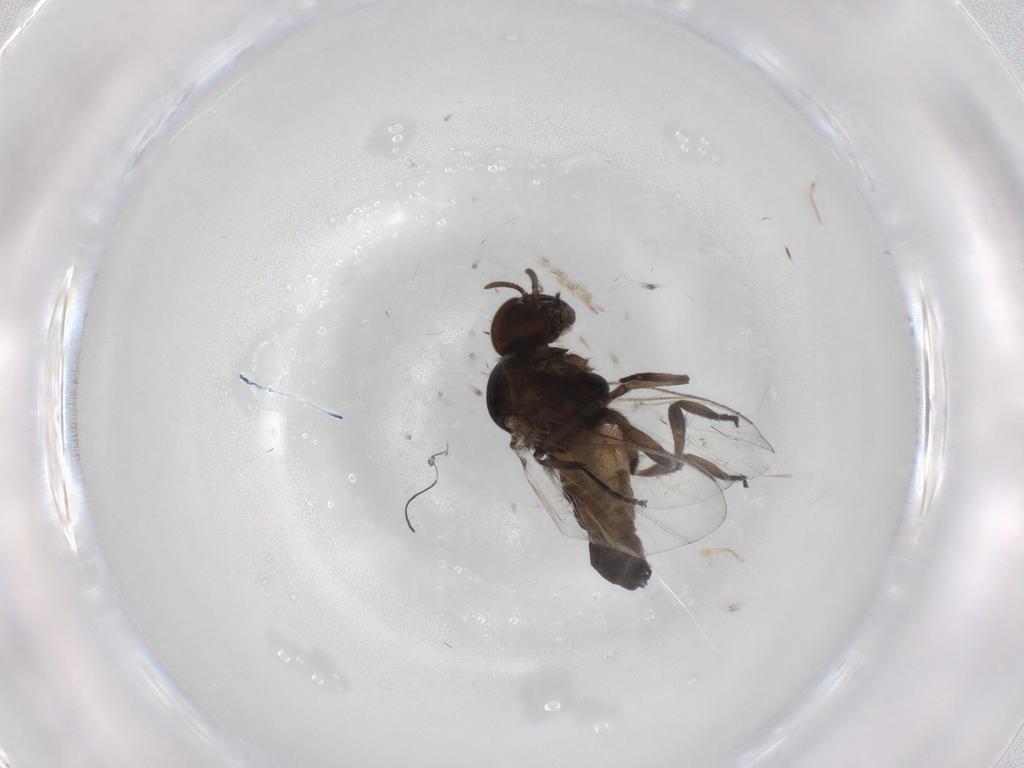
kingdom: Animalia
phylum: Arthropoda
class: Insecta
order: Diptera
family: Simuliidae
